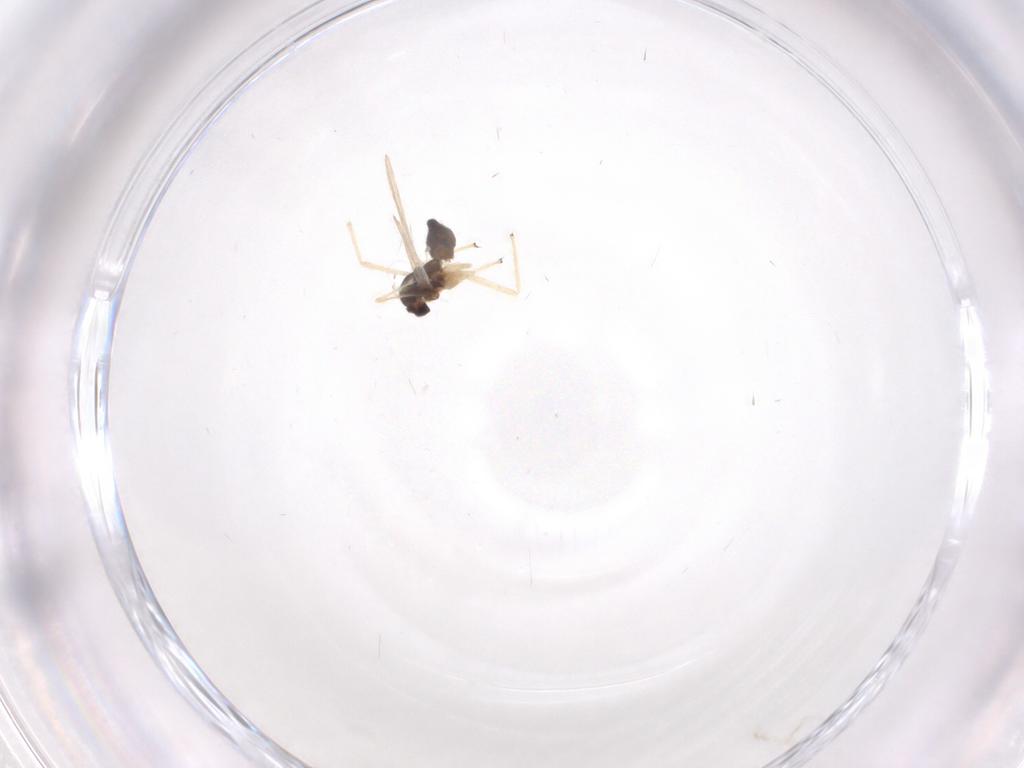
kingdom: Animalia
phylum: Arthropoda
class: Insecta
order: Diptera
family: Chironomidae
